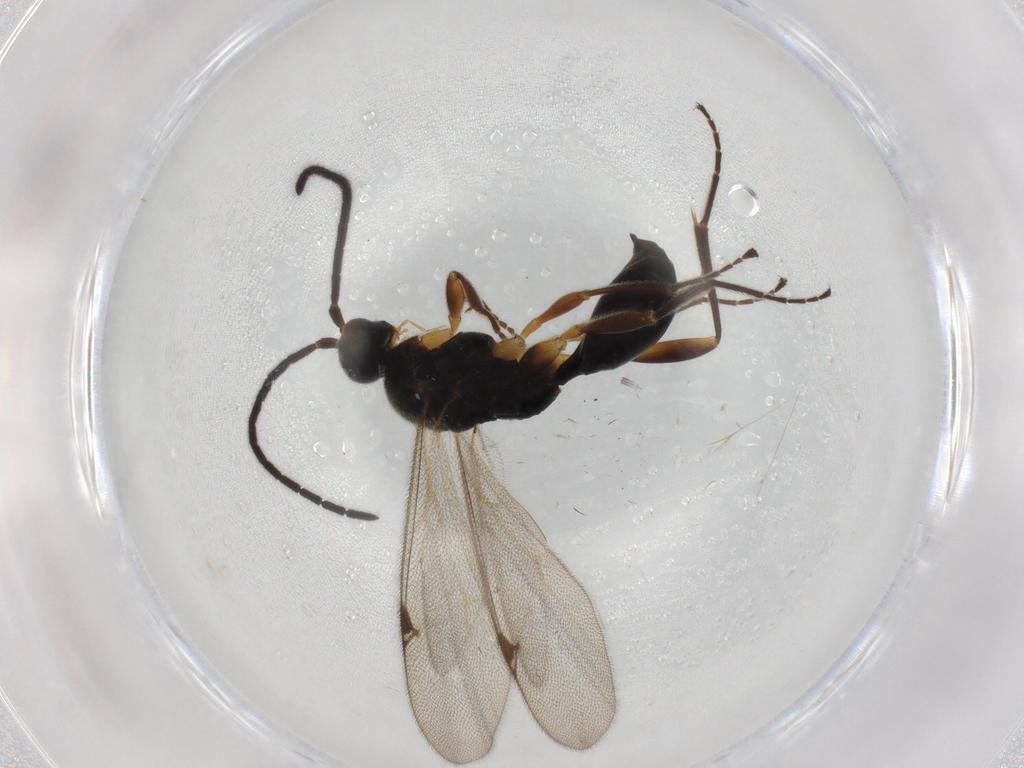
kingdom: Animalia
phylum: Arthropoda
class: Insecta
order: Hymenoptera
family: Proctotrupidae
